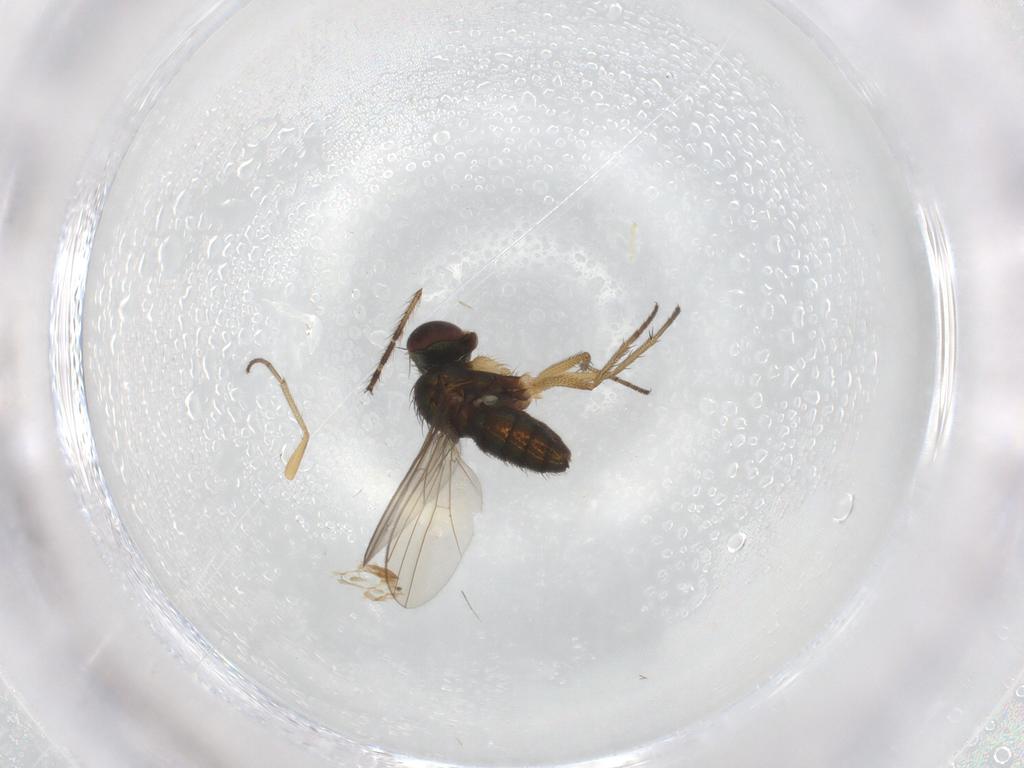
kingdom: Animalia
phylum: Arthropoda
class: Insecta
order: Diptera
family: Dolichopodidae
